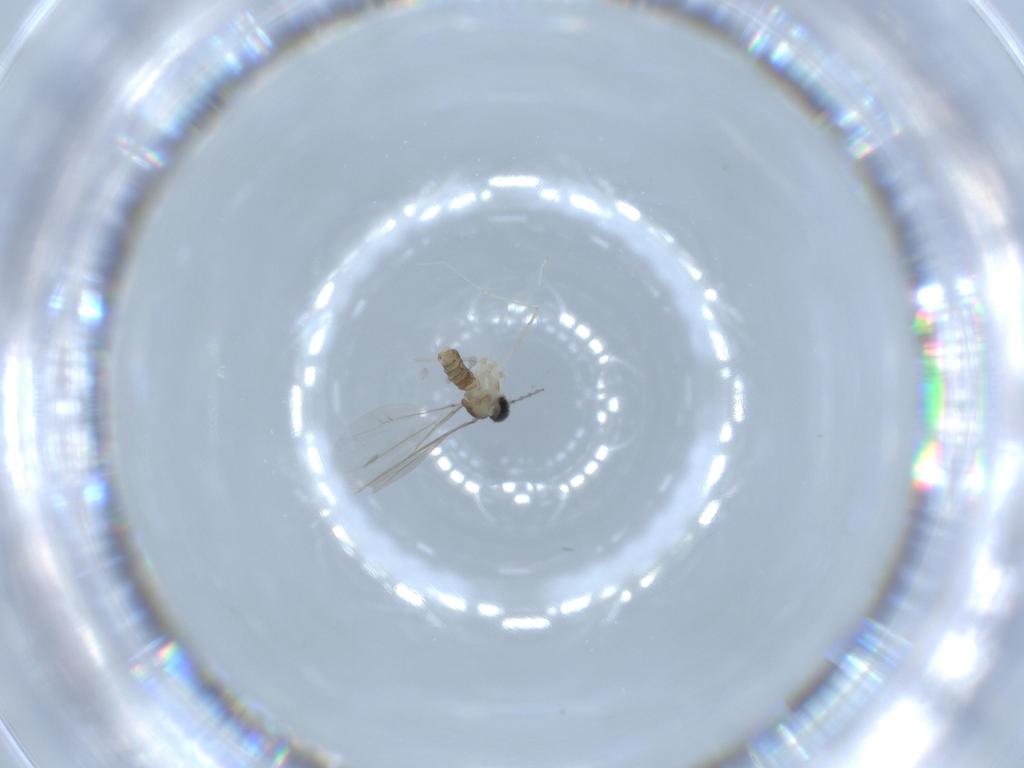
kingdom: Animalia
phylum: Arthropoda
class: Insecta
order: Diptera
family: Cecidomyiidae
